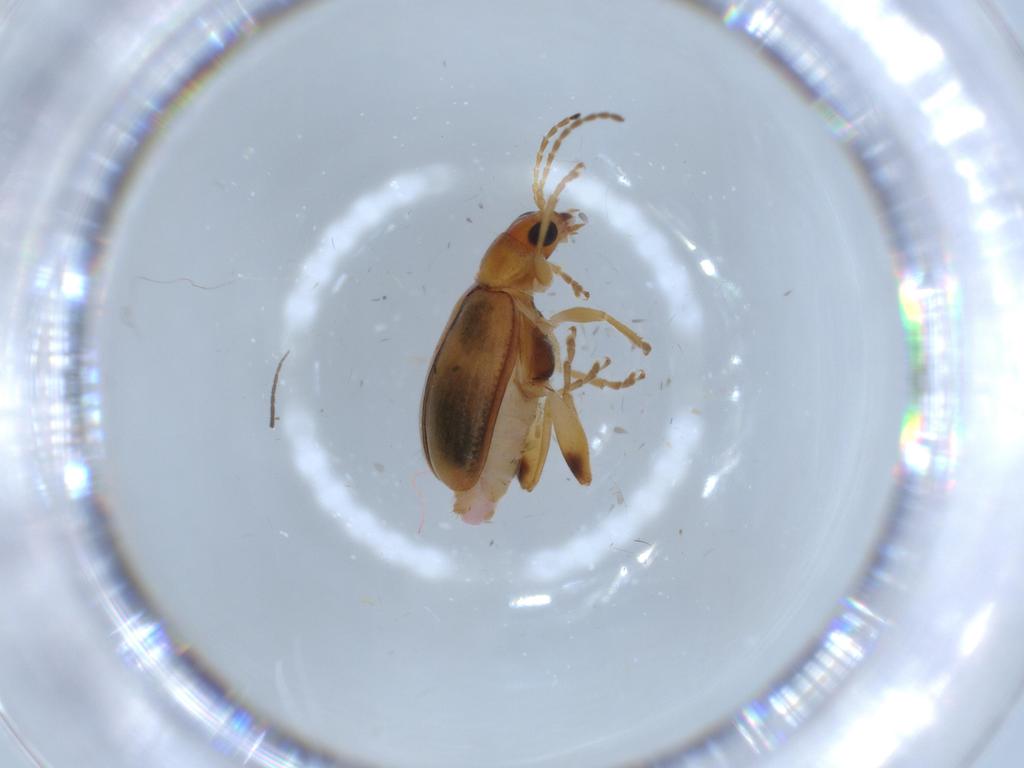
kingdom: Animalia
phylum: Arthropoda
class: Insecta
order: Coleoptera
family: Chrysomelidae
